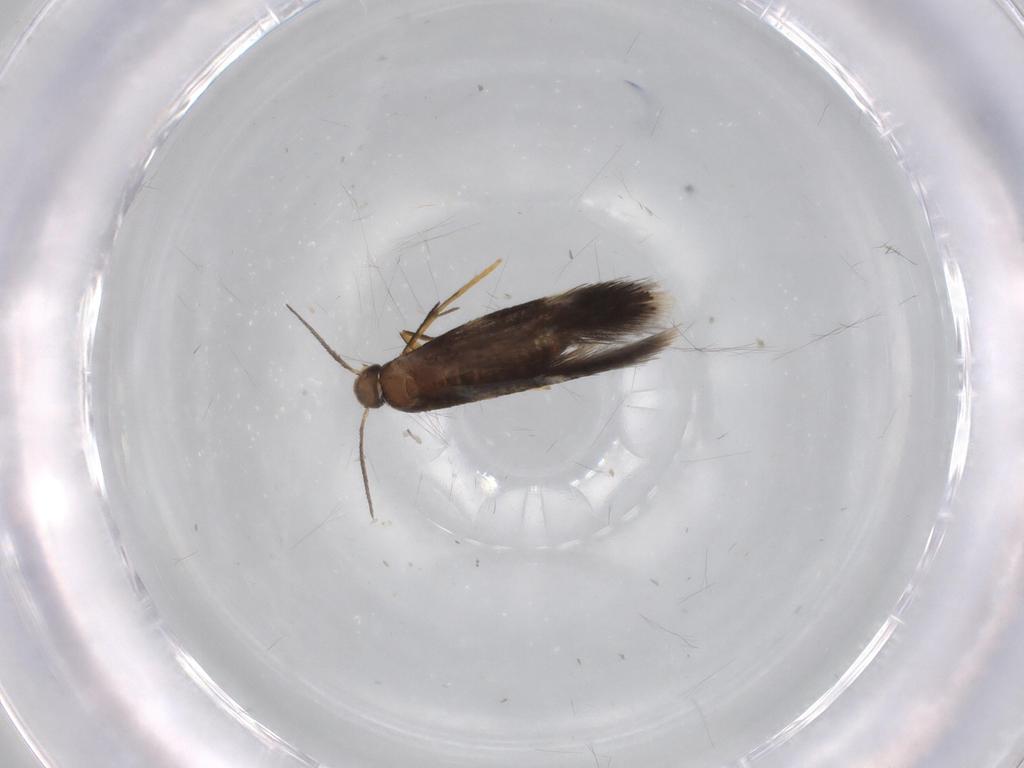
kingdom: Animalia
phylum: Arthropoda
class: Insecta
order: Lepidoptera
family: Heliozelidae
